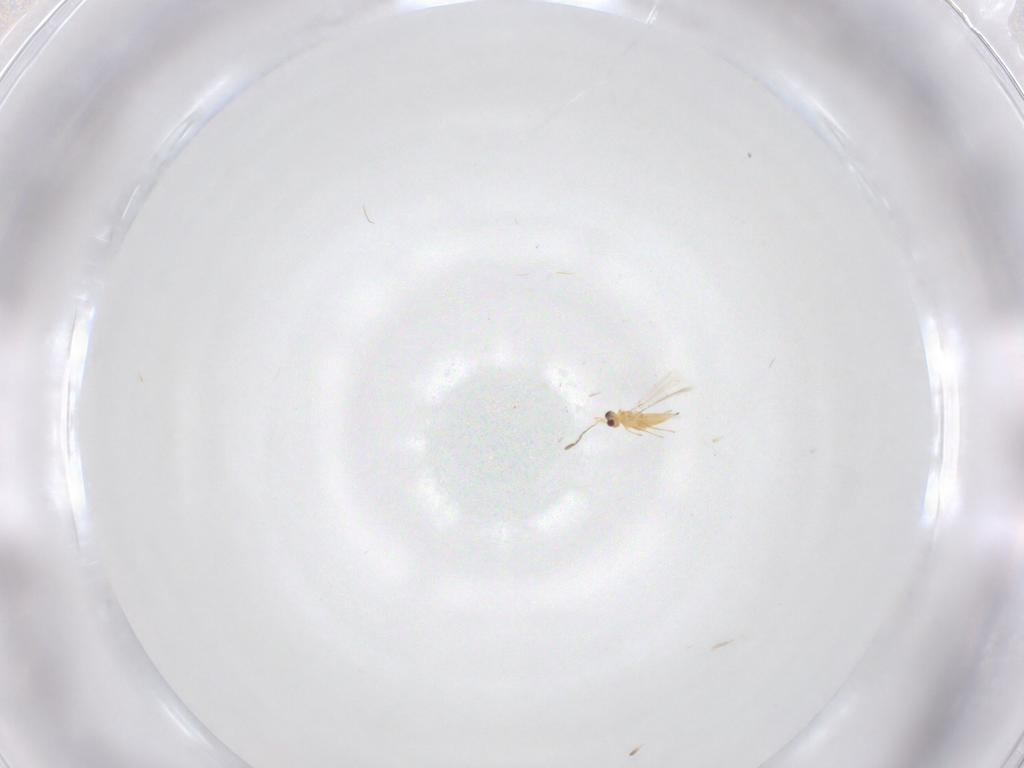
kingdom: Animalia
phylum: Arthropoda
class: Insecta
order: Hymenoptera
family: Mymaridae
